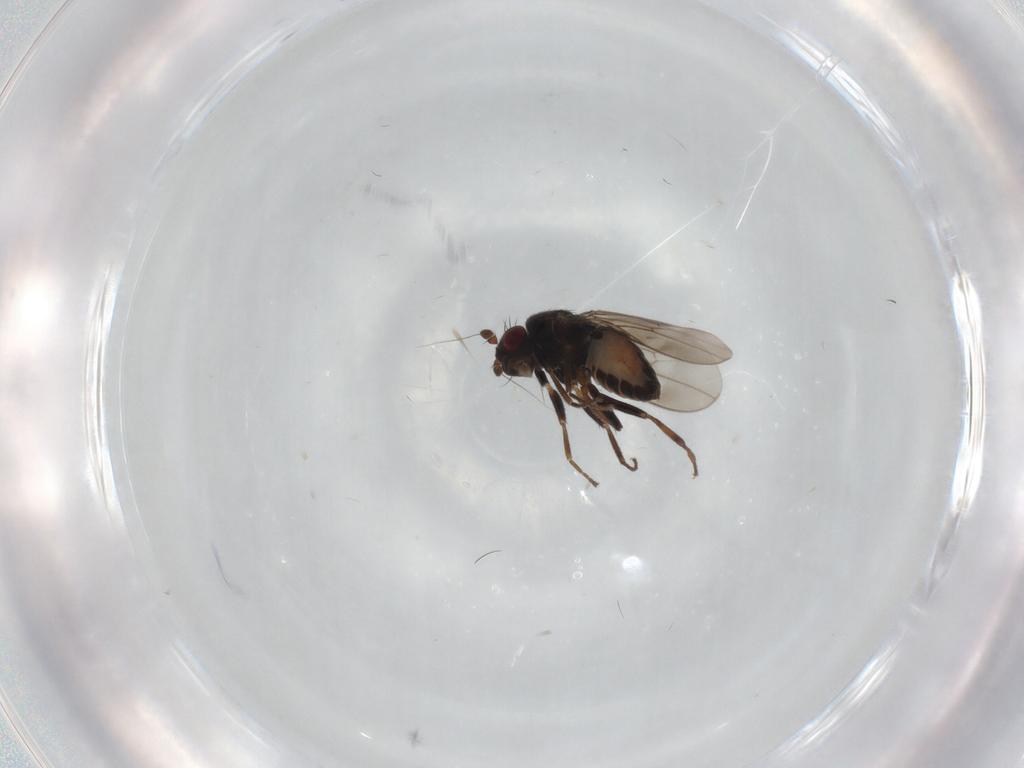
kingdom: Animalia
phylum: Arthropoda
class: Insecta
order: Diptera
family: Sphaeroceridae
